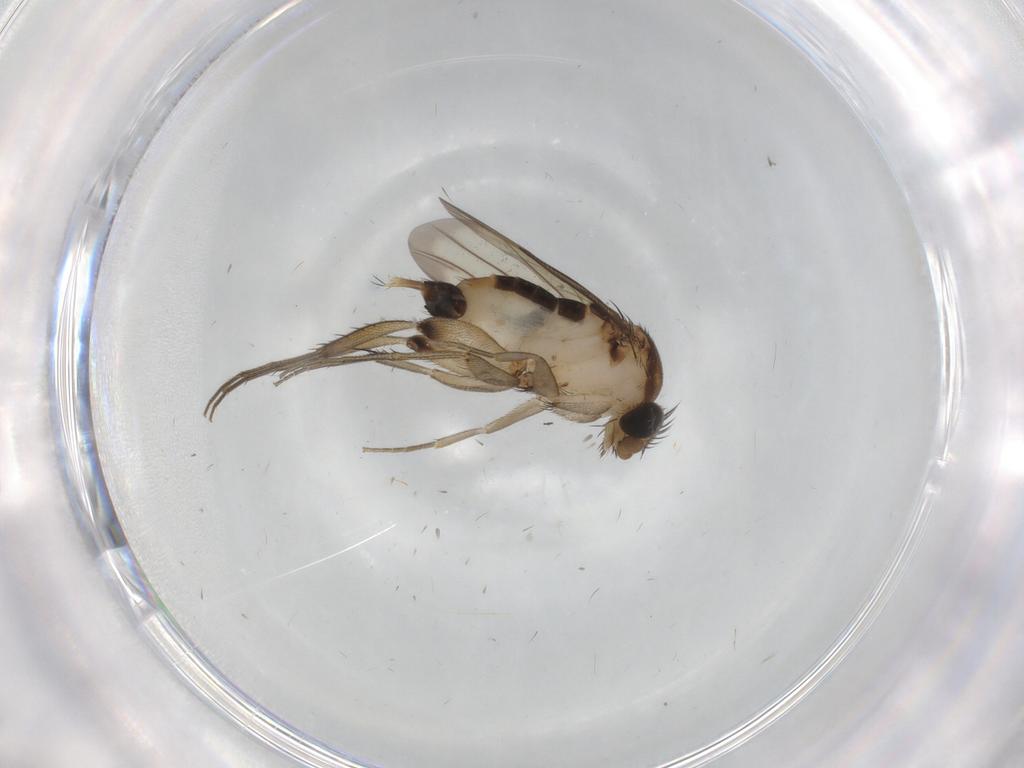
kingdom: Animalia
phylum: Arthropoda
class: Insecta
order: Diptera
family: Phoridae
